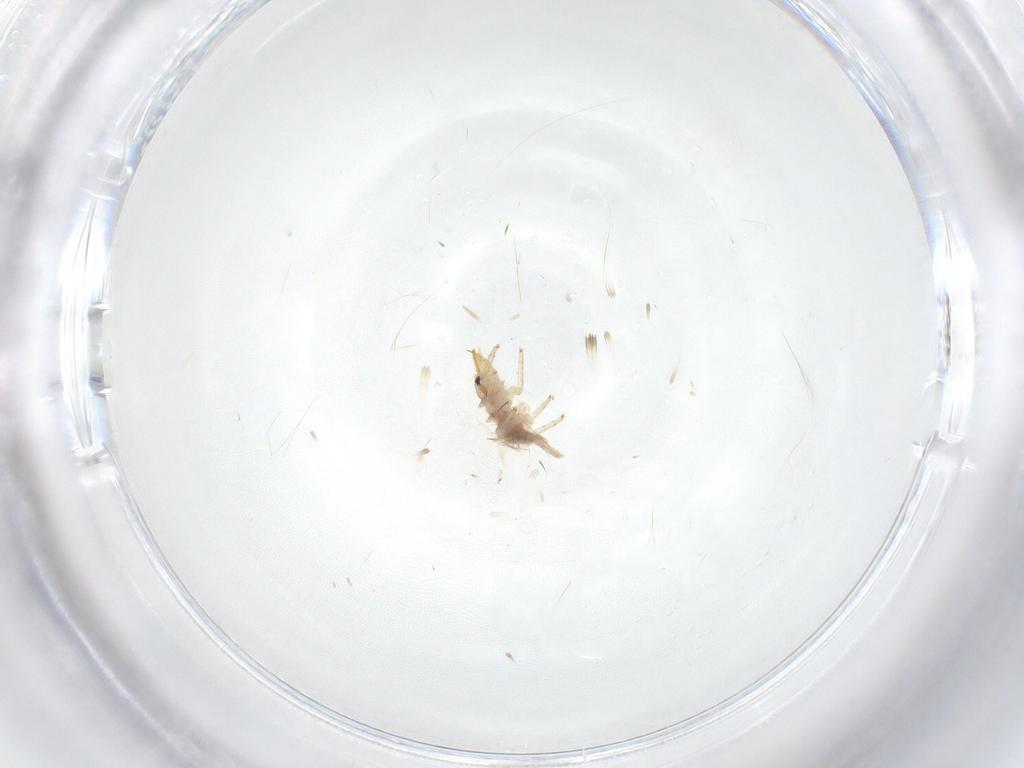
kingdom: Animalia
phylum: Arthropoda
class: Insecta
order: Neuroptera
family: Chrysopidae
